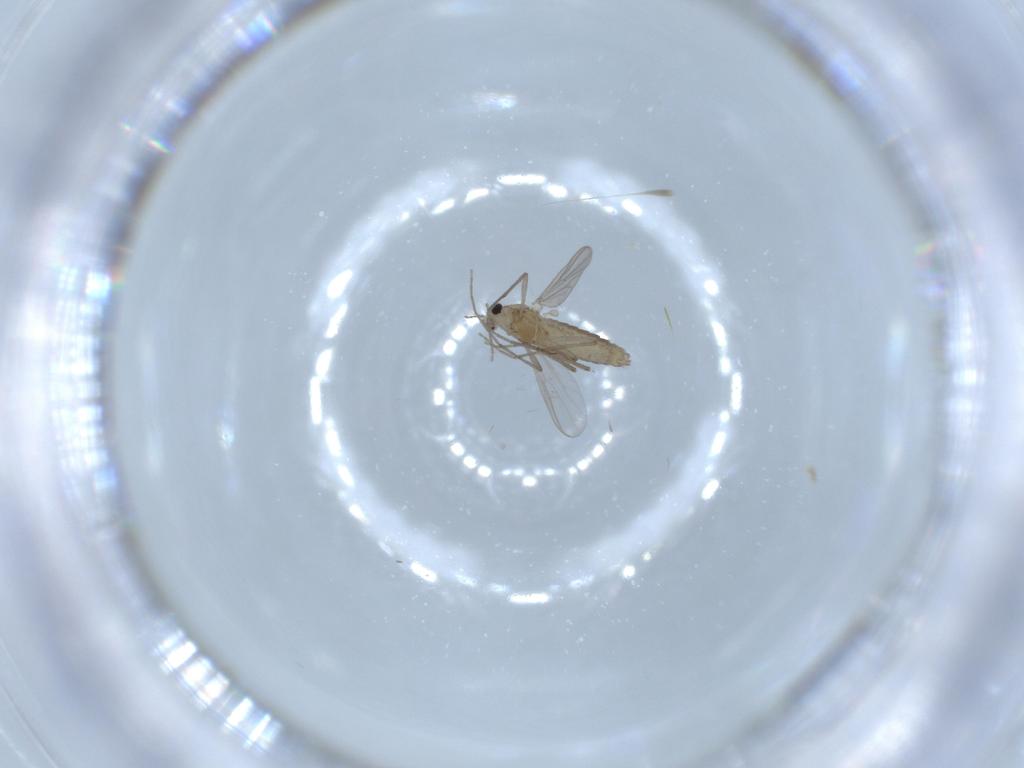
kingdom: Animalia
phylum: Arthropoda
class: Insecta
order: Diptera
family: Chironomidae
